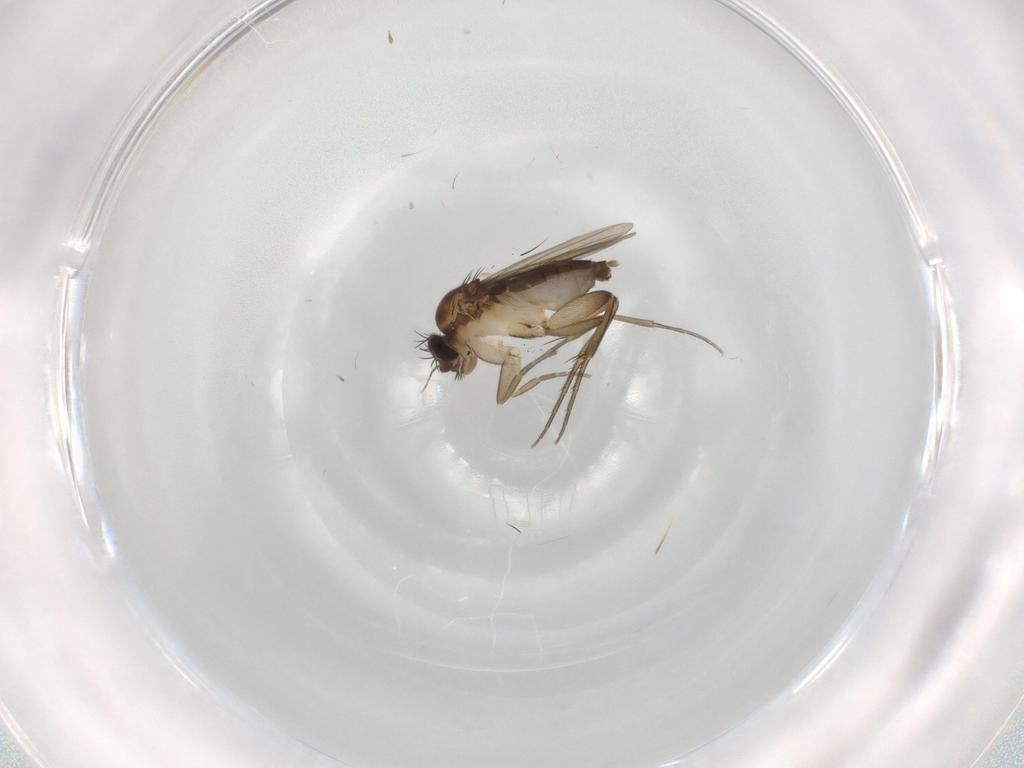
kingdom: Animalia
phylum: Arthropoda
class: Insecta
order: Diptera
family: Phoridae
